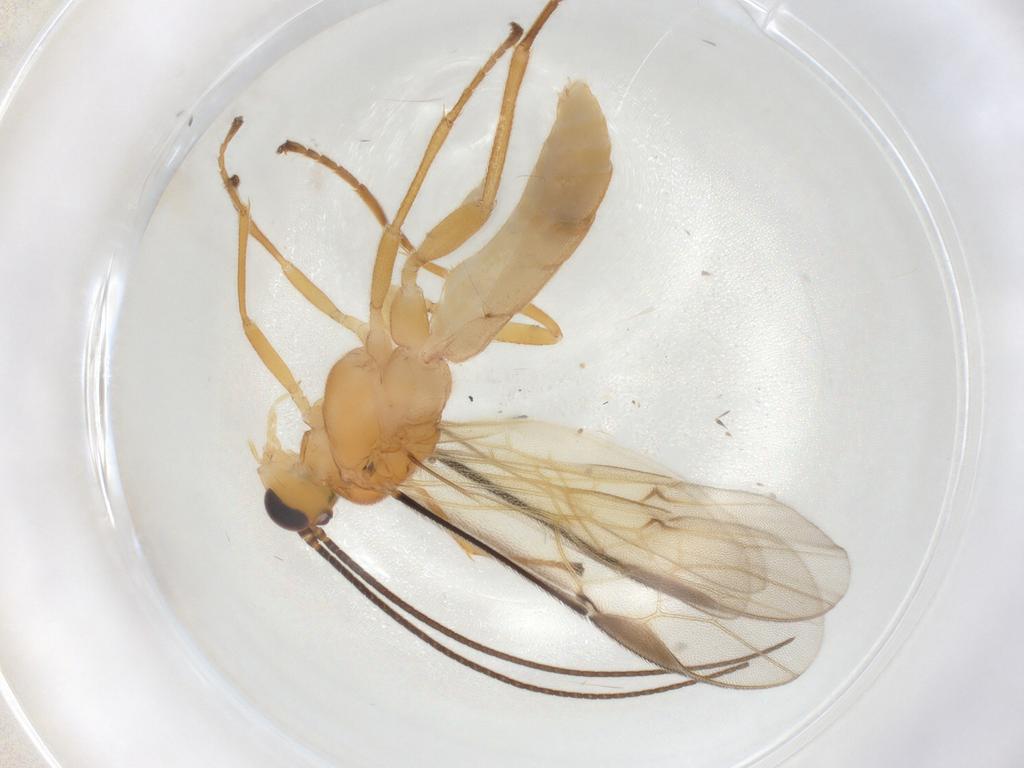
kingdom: Animalia
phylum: Arthropoda
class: Insecta
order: Hymenoptera
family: Braconidae
